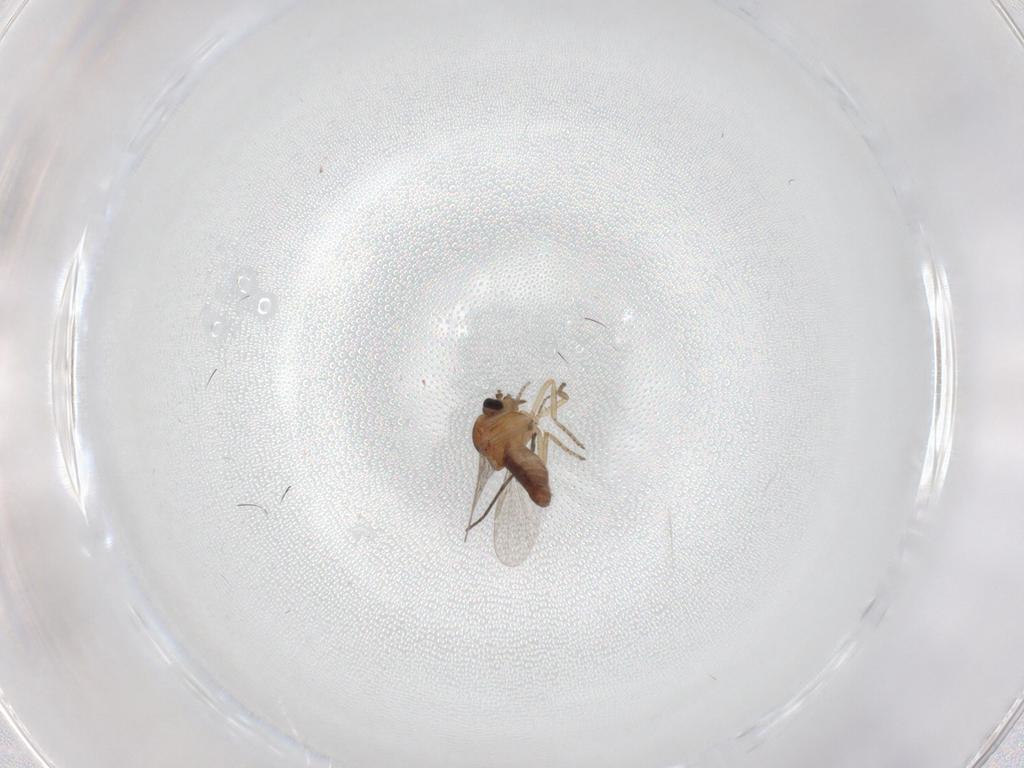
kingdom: Animalia
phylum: Arthropoda
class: Insecta
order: Diptera
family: Ceratopogonidae
